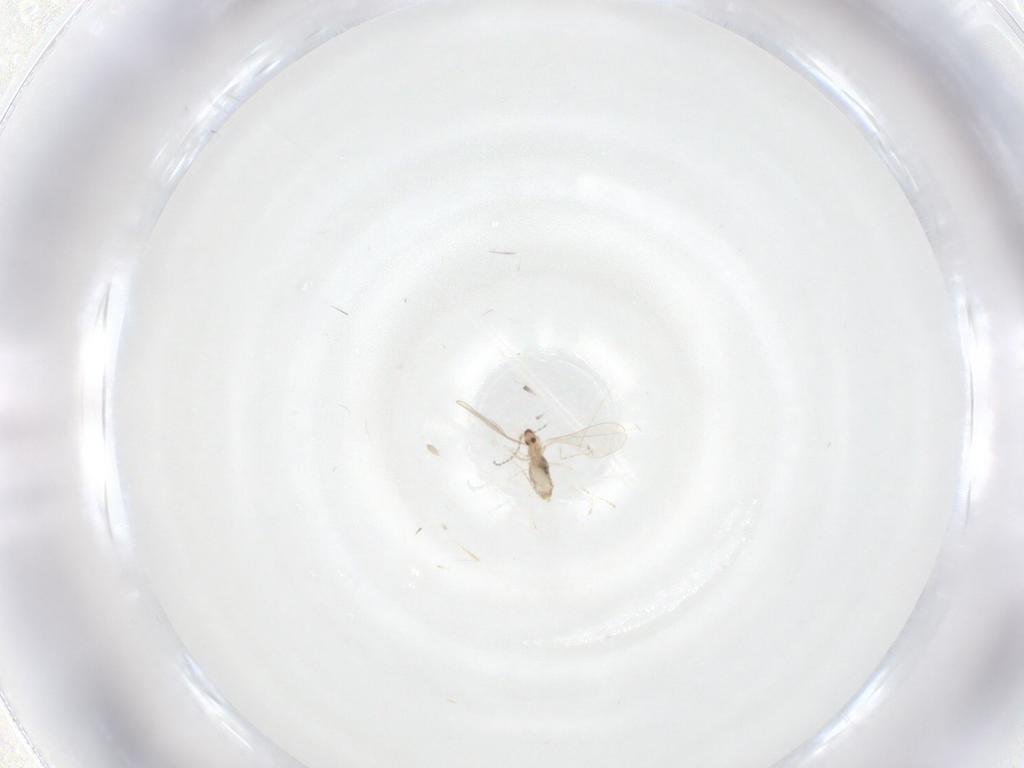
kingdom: Animalia
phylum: Arthropoda
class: Insecta
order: Diptera
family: Cecidomyiidae
